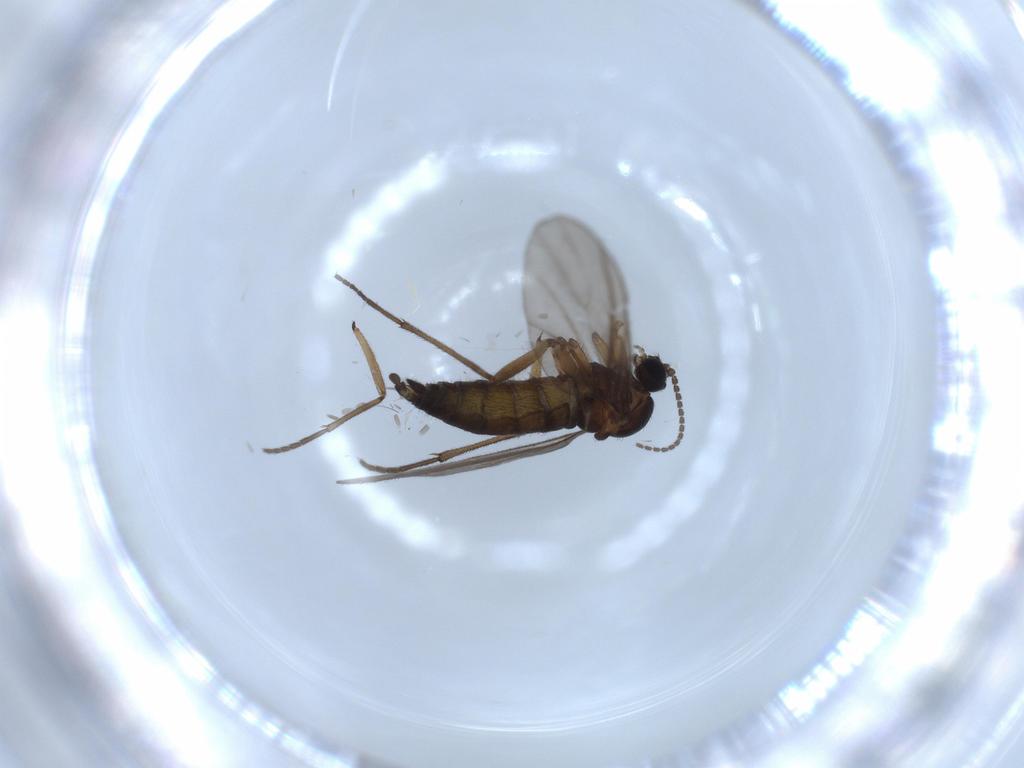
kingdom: Animalia
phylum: Arthropoda
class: Insecta
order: Diptera
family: Sciaridae
